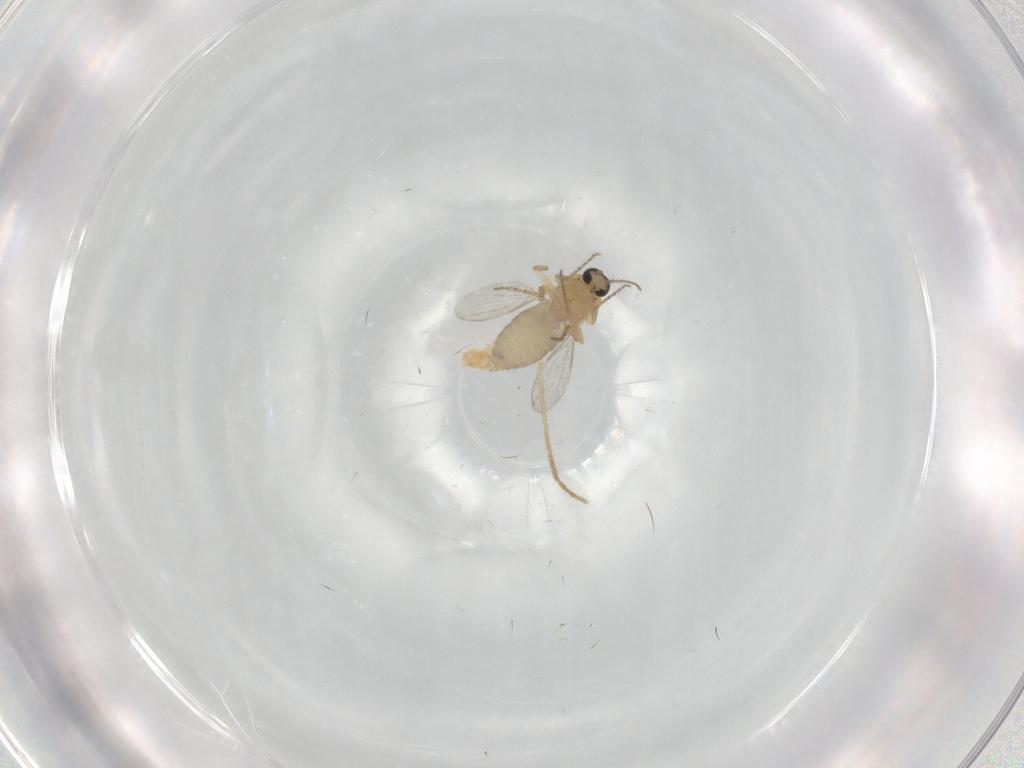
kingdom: Animalia
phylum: Arthropoda
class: Insecta
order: Diptera
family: Ceratopogonidae
